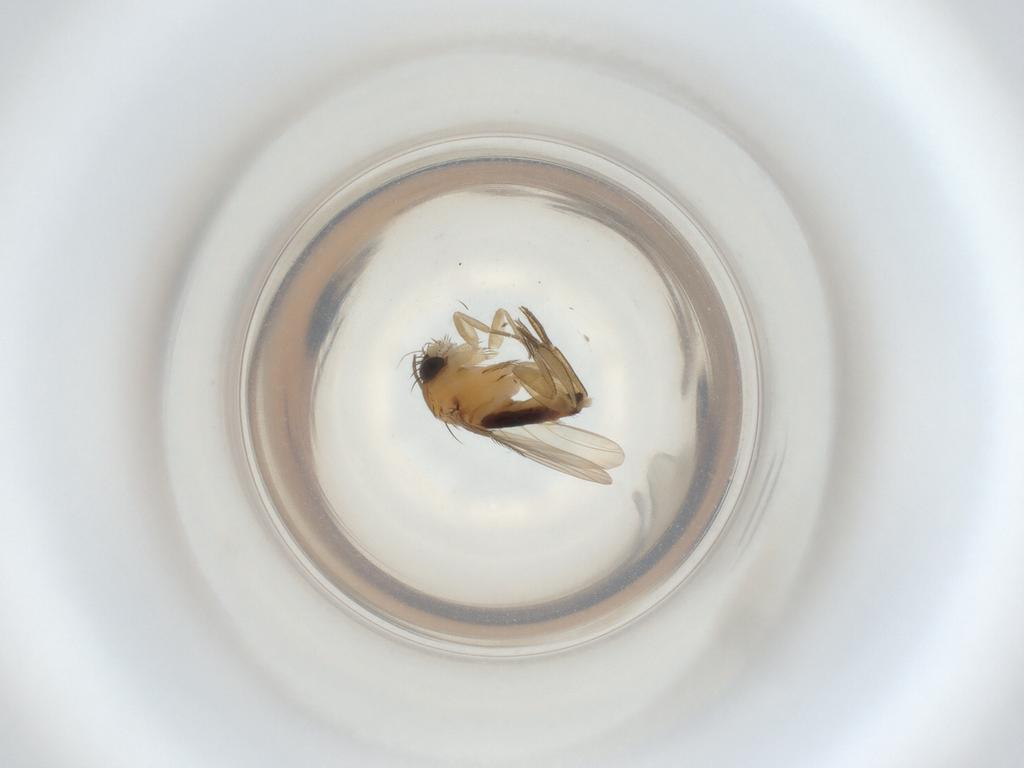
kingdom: Animalia
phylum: Arthropoda
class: Insecta
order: Diptera
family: Phoridae
